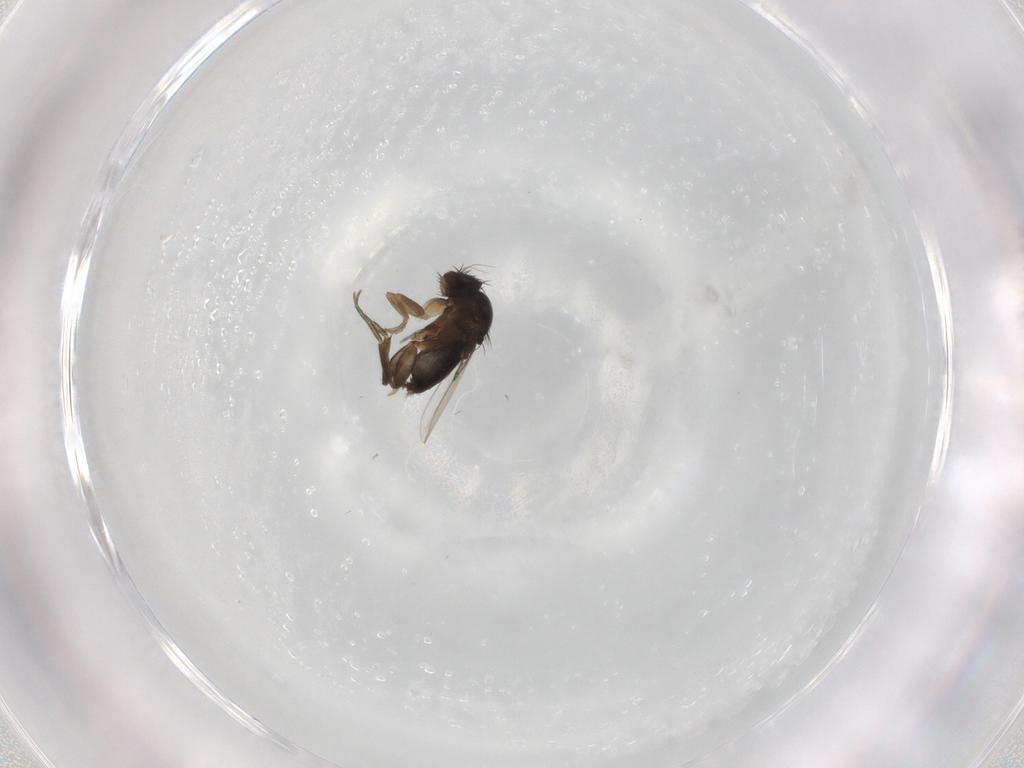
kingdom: Animalia
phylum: Arthropoda
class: Insecta
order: Diptera
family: Phoridae
